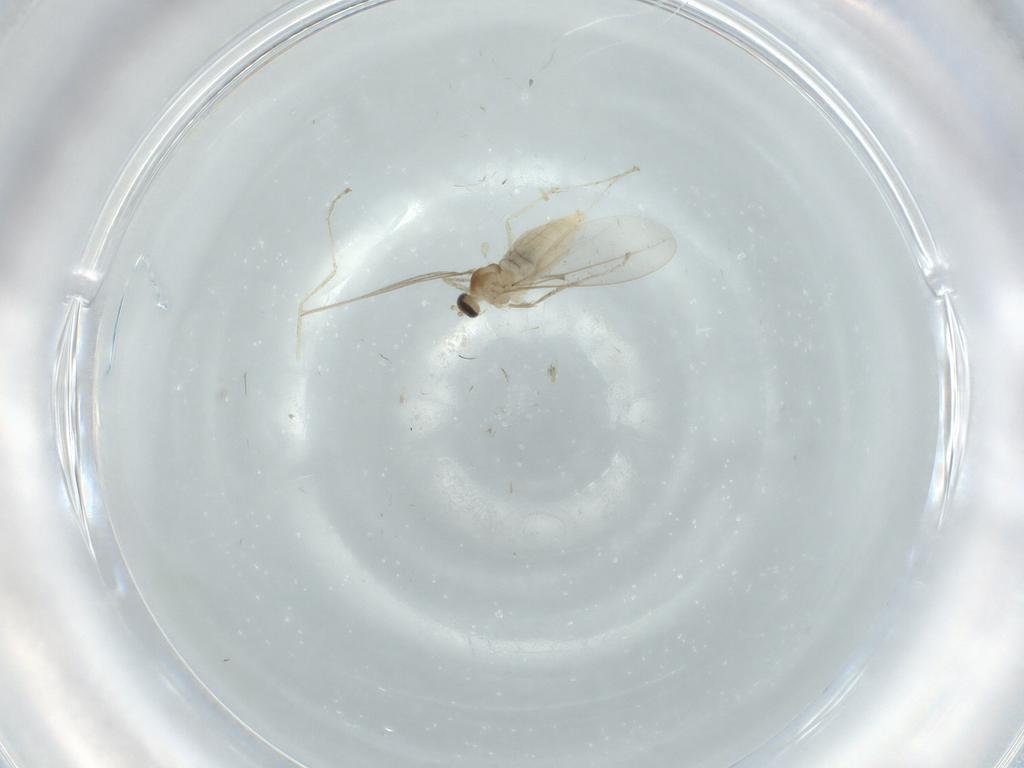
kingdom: Animalia
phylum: Arthropoda
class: Insecta
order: Diptera
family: Cecidomyiidae
